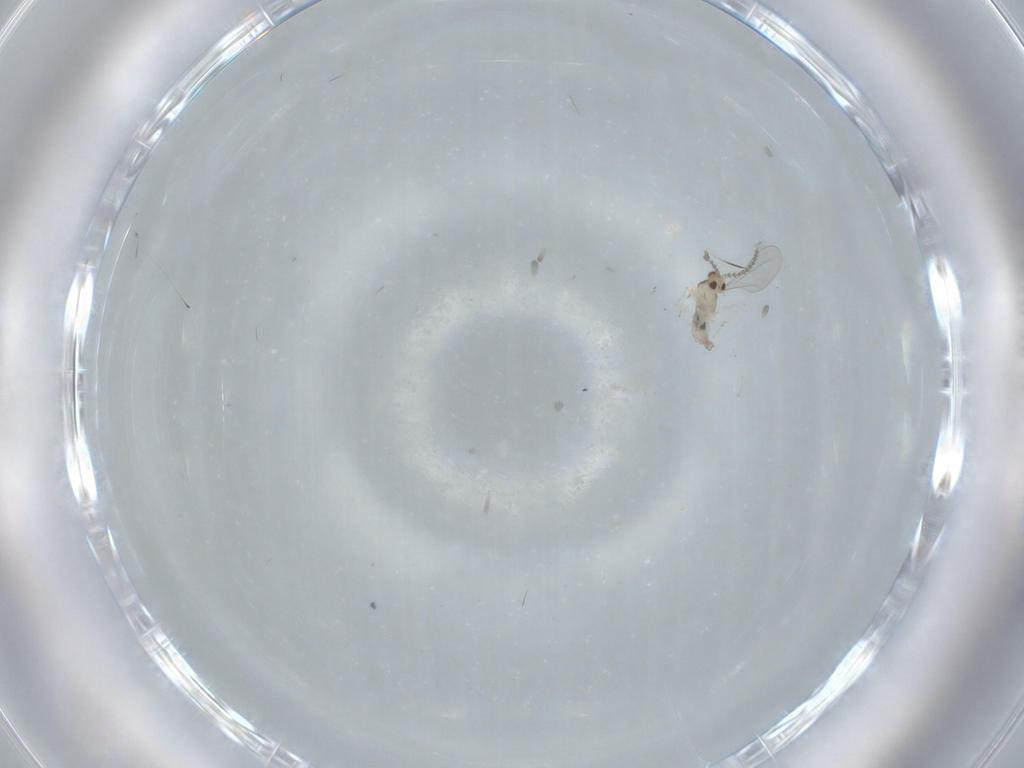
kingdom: Animalia
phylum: Arthropoda
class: Insecta
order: Diptera
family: Cecidomyiidae
